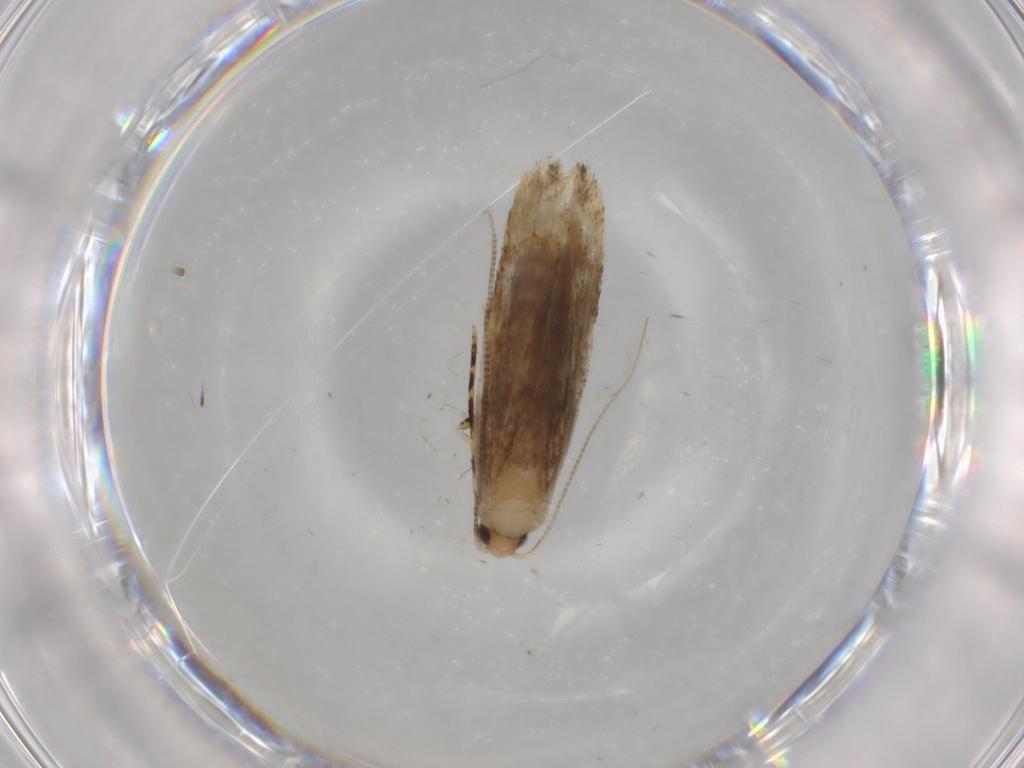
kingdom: Animalia
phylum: Arthropoda
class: Insecta
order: Lepidoptera
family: Tineidae
